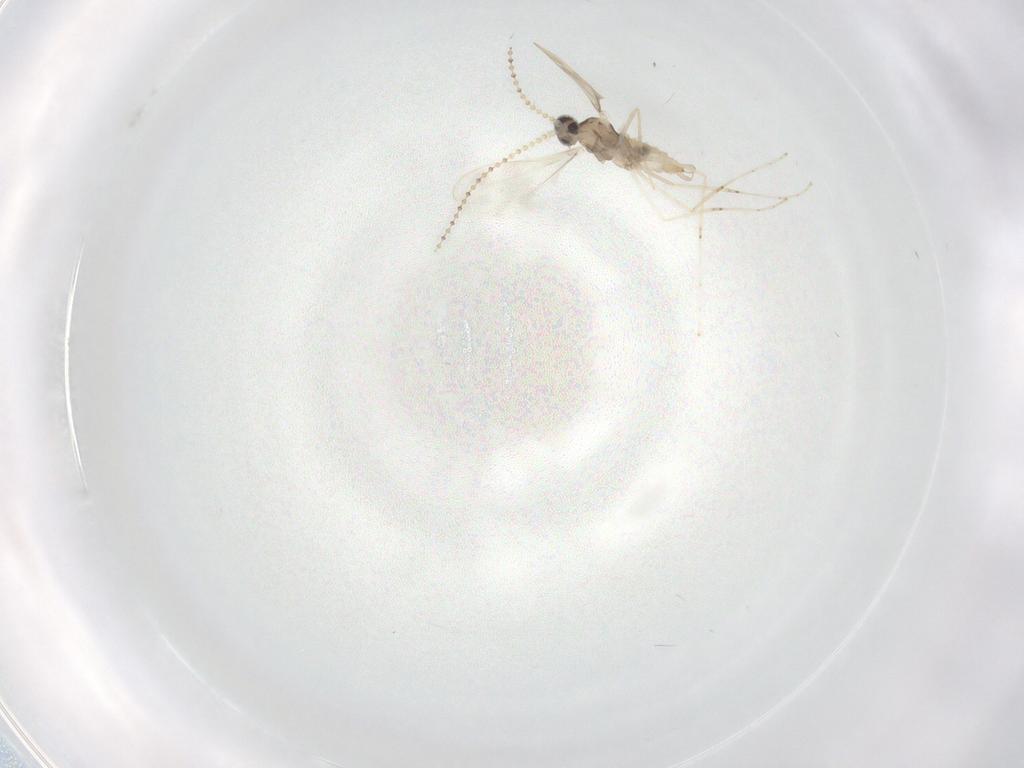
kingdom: Animalia
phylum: Arthropoda
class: Insecta
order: Diptera
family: Cecidomyiidae
